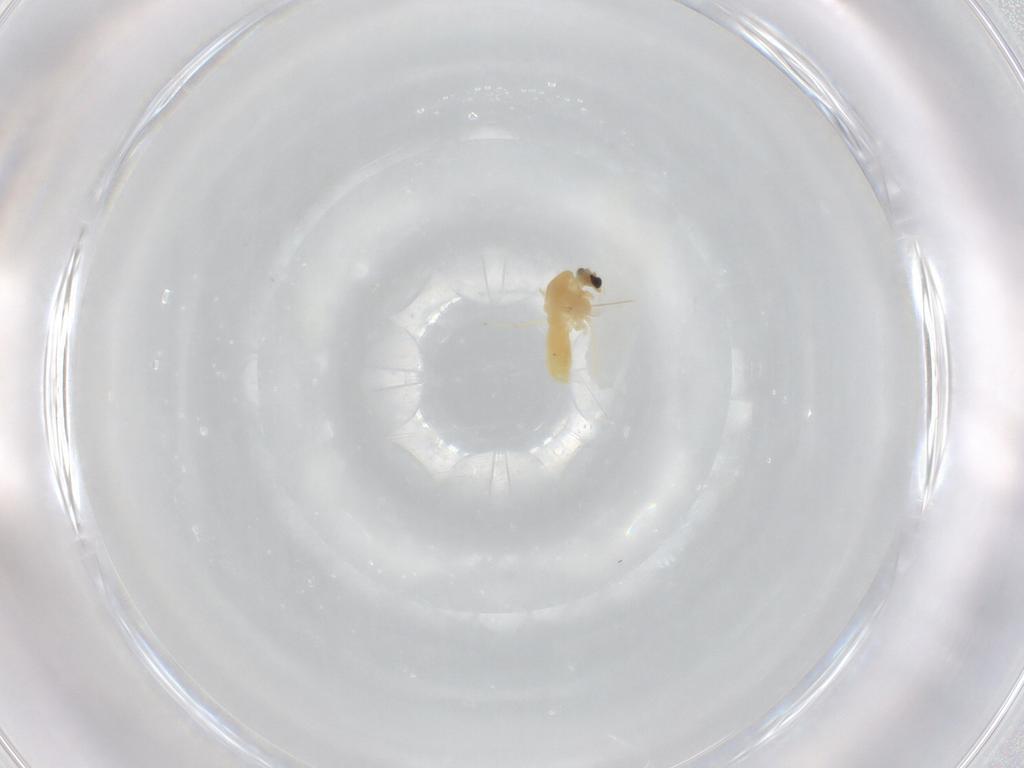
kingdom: Animalia
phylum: Arthropoda
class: Insecta
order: Diptera
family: Chironomidae
